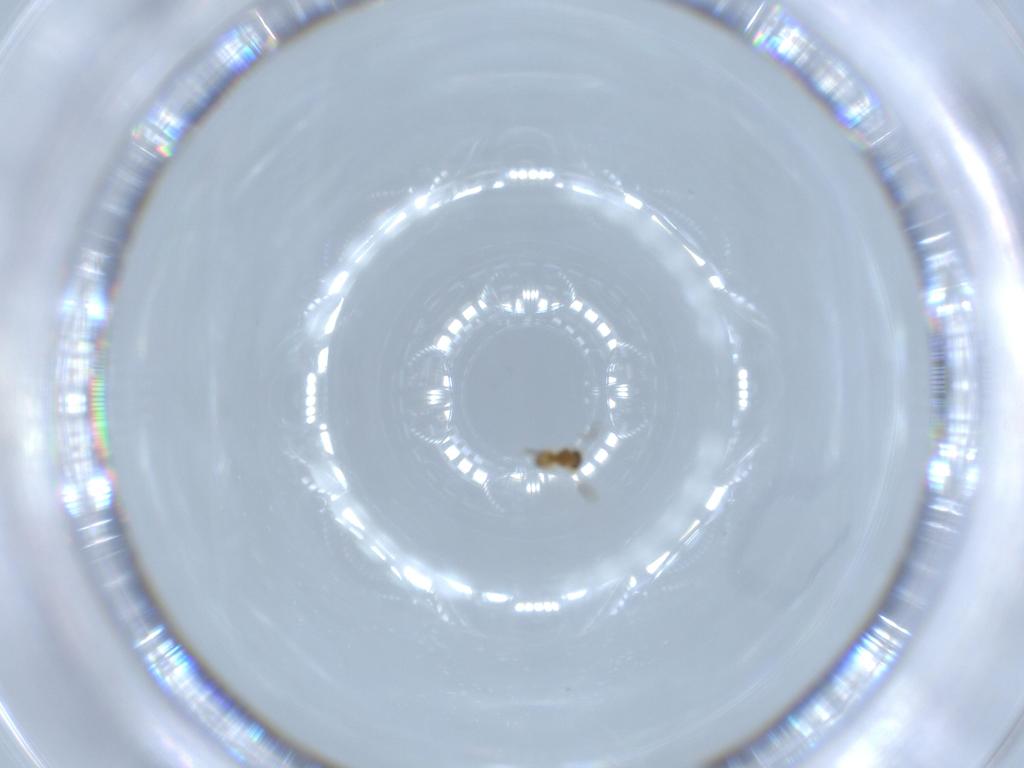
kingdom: Animalia
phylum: Arthropoda
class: Insecta
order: Hymenoptera
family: Platygastridae
